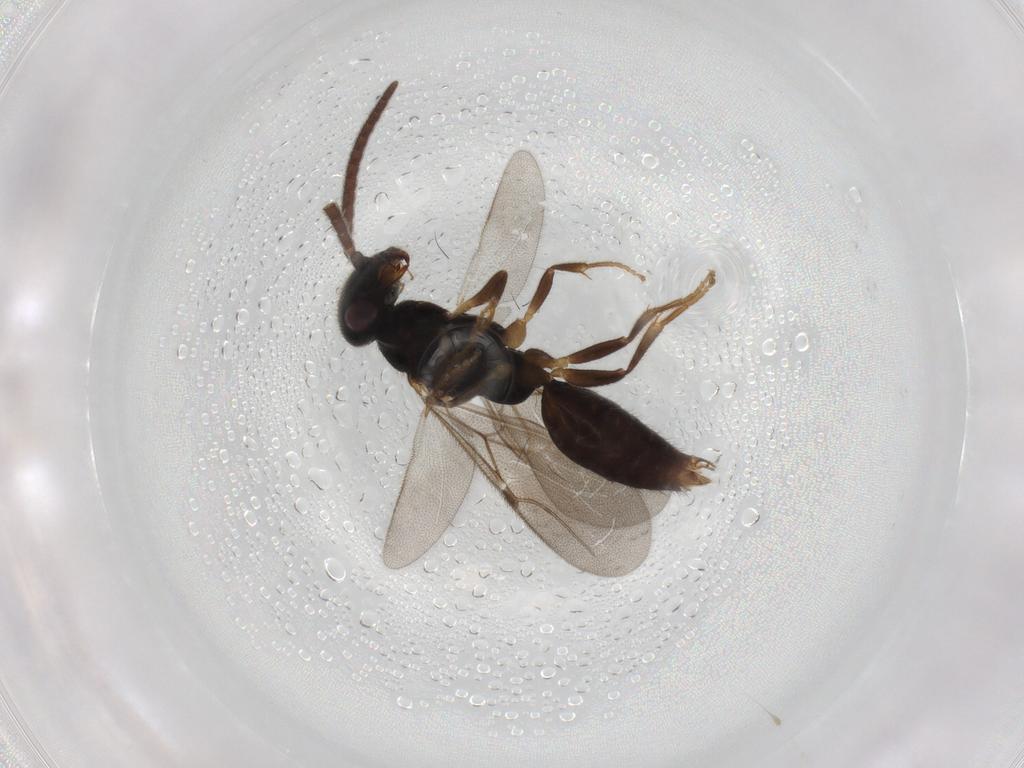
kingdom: Animalia
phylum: Arthropoda
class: Insecta
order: Hymenoptera
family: Bethylidae
